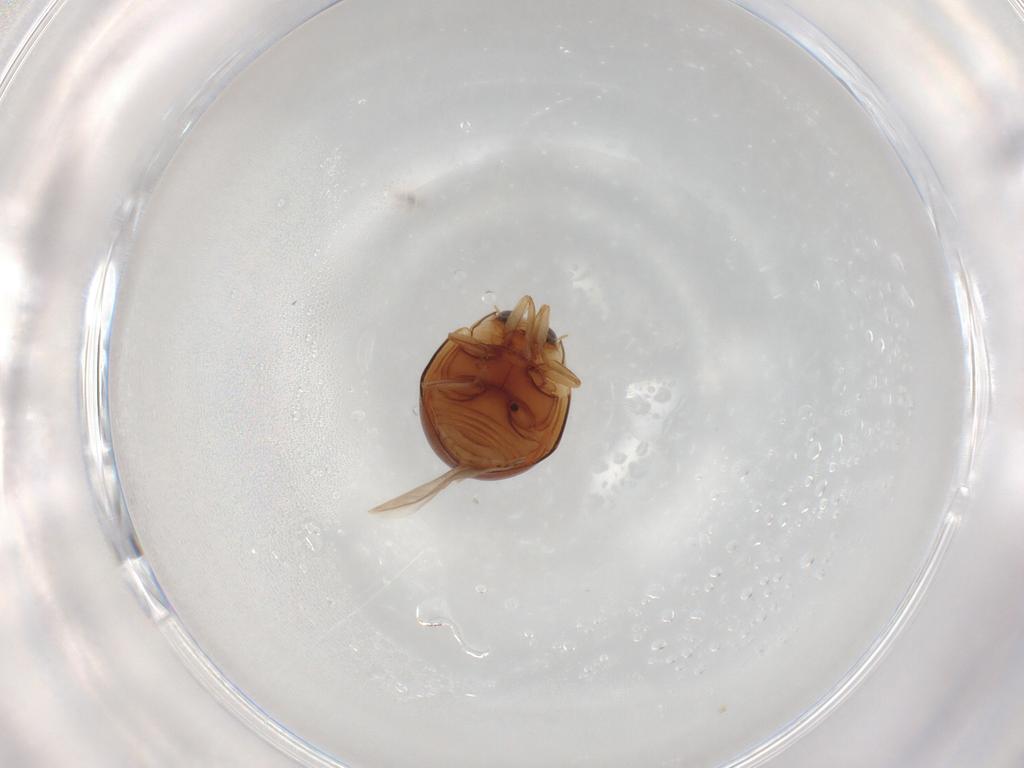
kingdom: Animalia
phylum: Arthropoda
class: Insecta
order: Coleoptera
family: Coccinellidae
